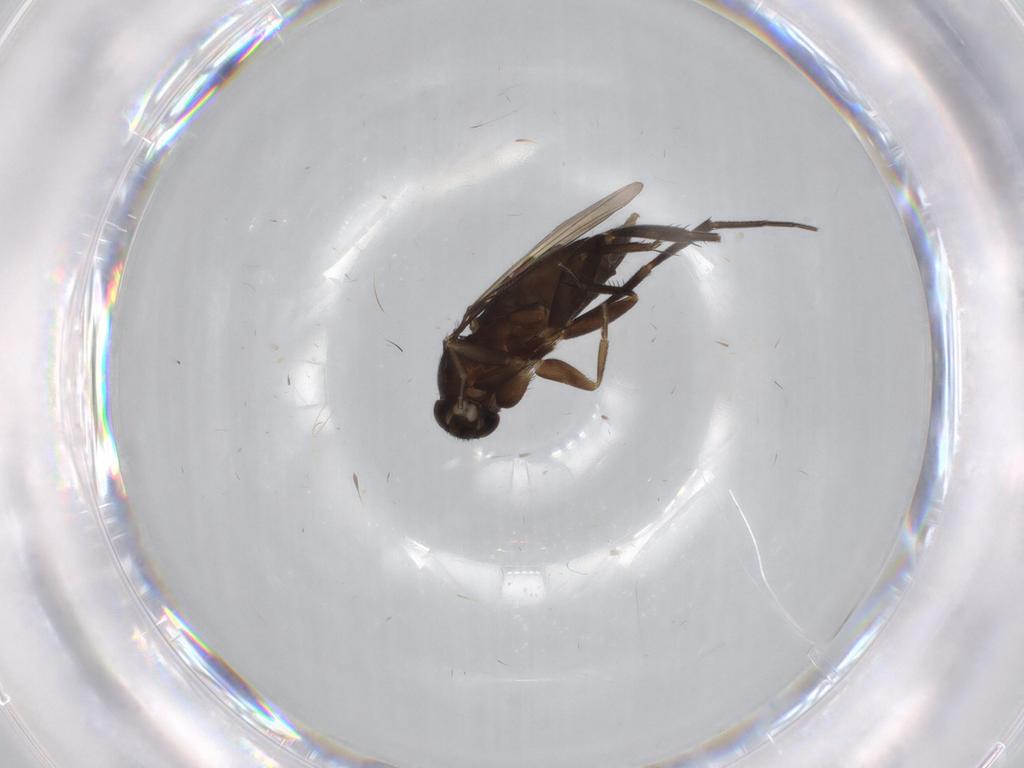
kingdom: Animalia
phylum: Arthropoda
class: Insecta
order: Diptera
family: Phoridae
